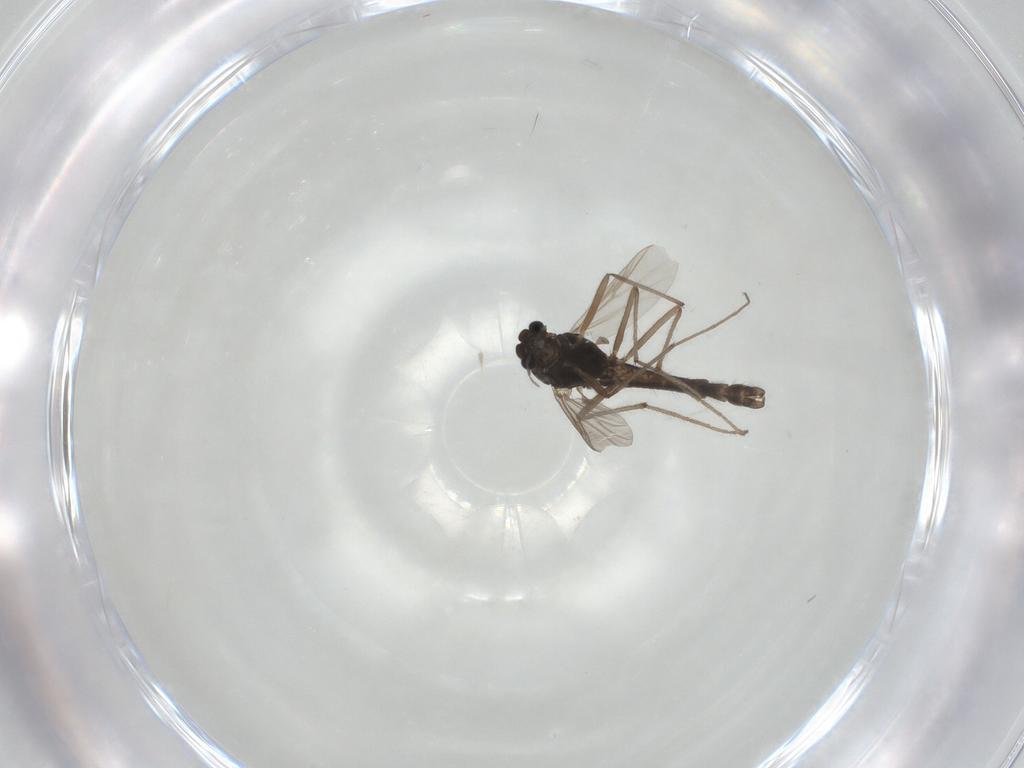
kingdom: Animalia
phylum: Arthropoda
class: Insecta
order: Diptera
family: Chironomidae
